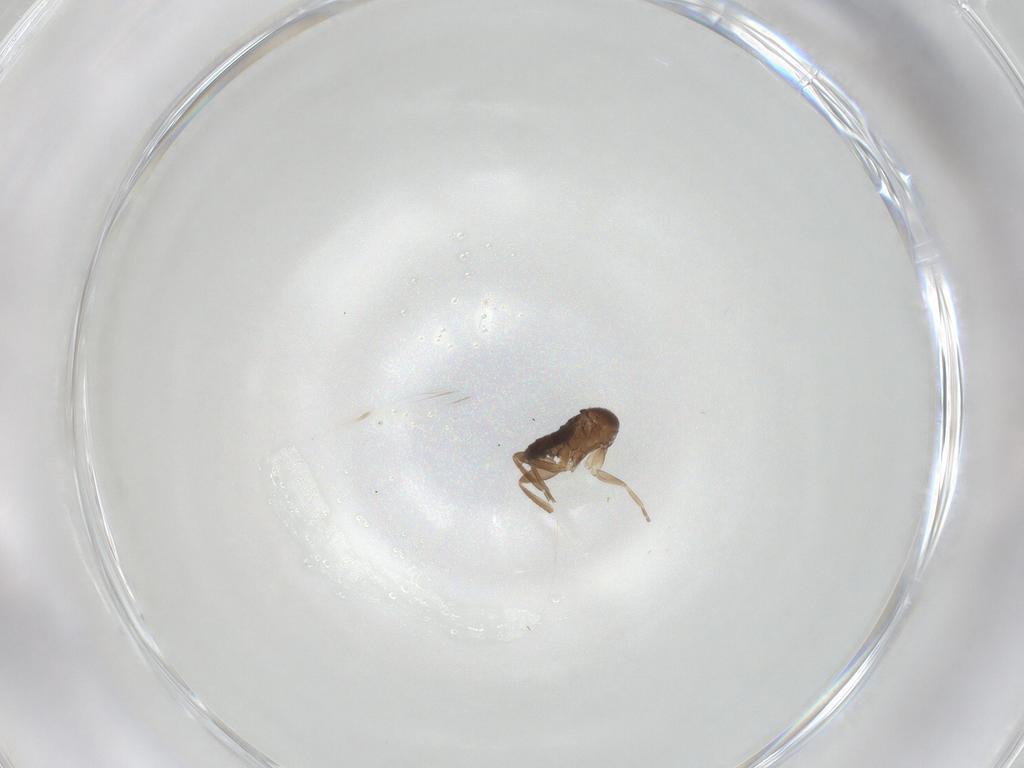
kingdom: Animalia
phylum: Arthropoda
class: Insecta
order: Diptera
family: Phoridae
